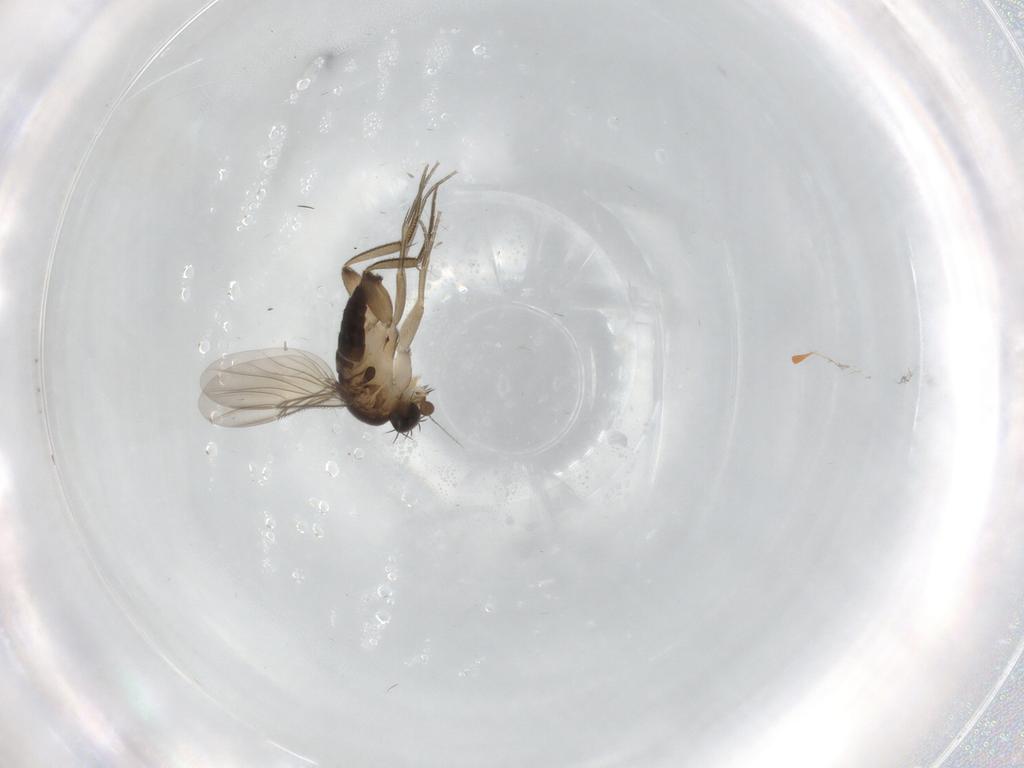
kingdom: Animalia
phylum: Arthropoda
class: Insecta
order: Diptera
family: Phoridae
